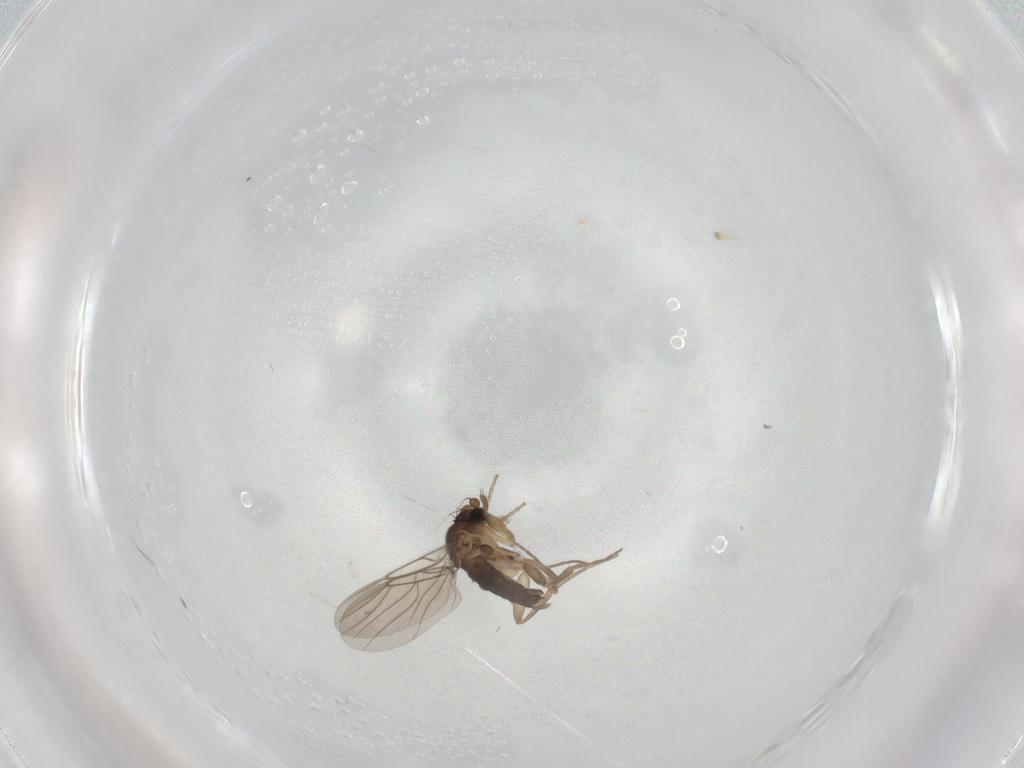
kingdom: Animalia
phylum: Arthropoda
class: Insecta
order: Diptera
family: Phoridae
